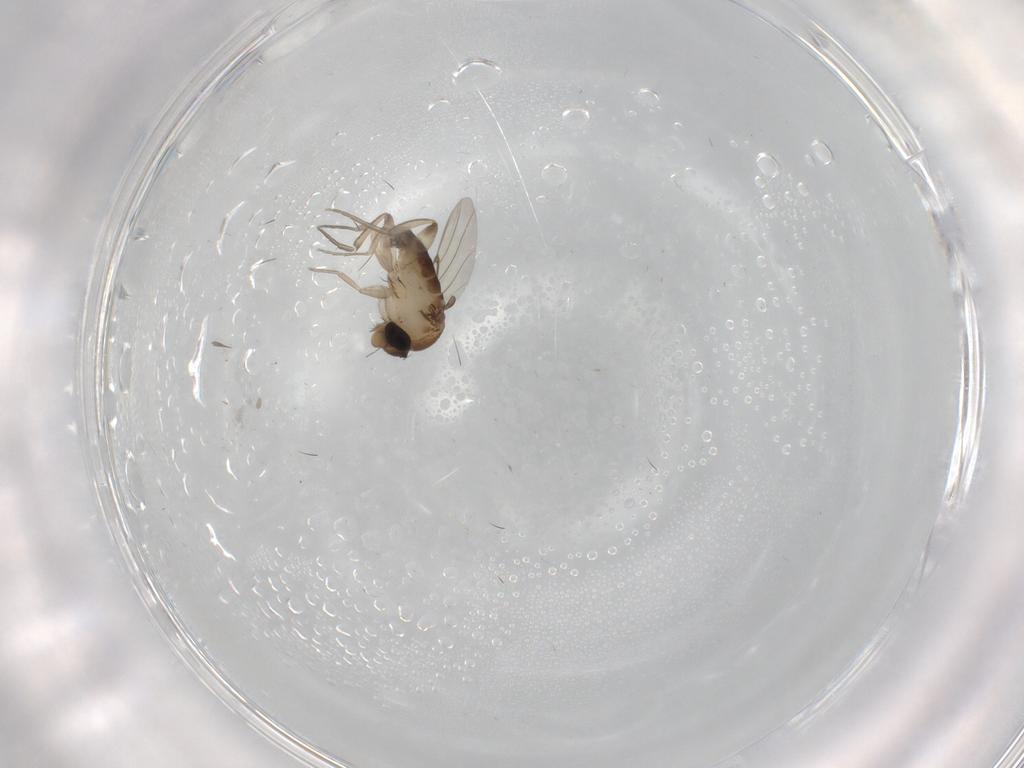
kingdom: Animalia
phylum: Arthropoda
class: Insecta
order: Diptera
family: Phoridae
